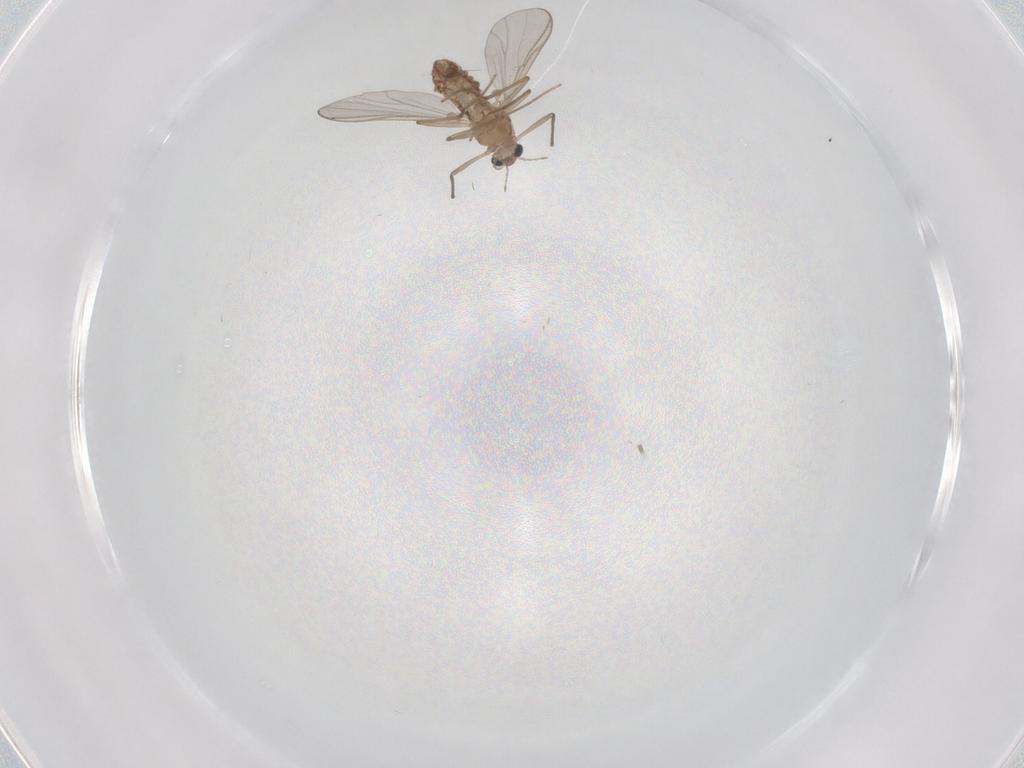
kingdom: Animalia
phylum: Arthropoda
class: Insecta
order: Diptera
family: Chironomidae
